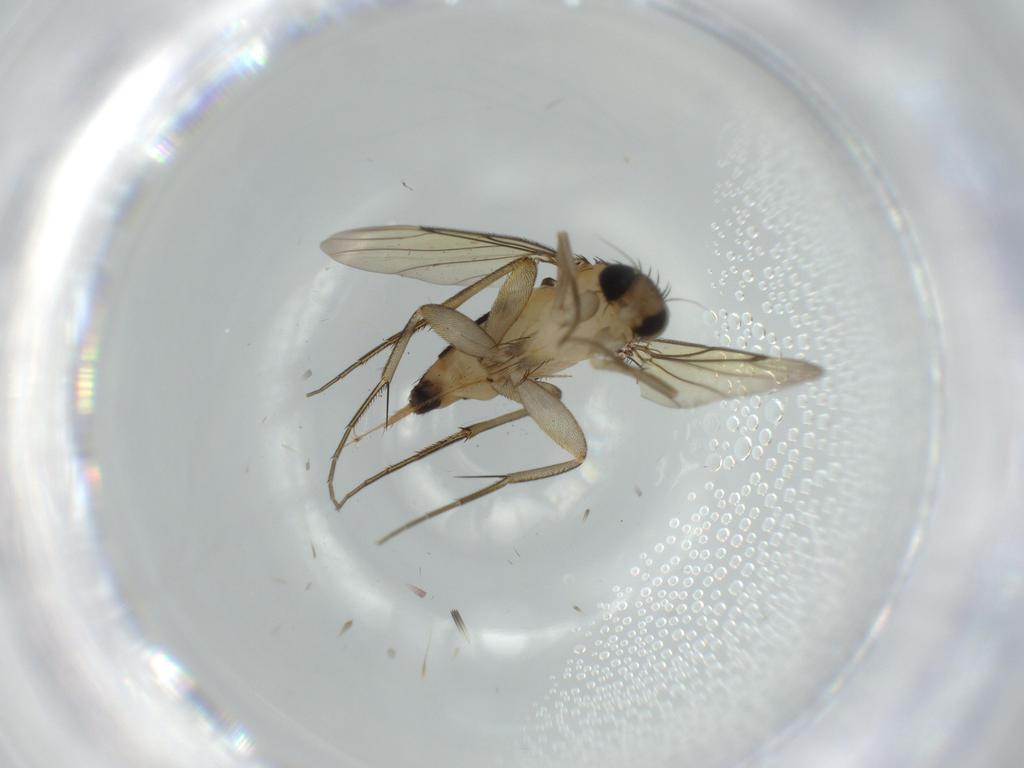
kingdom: Animalia
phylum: Arthropoda
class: Insecta
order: Diptera
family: Phoridae
